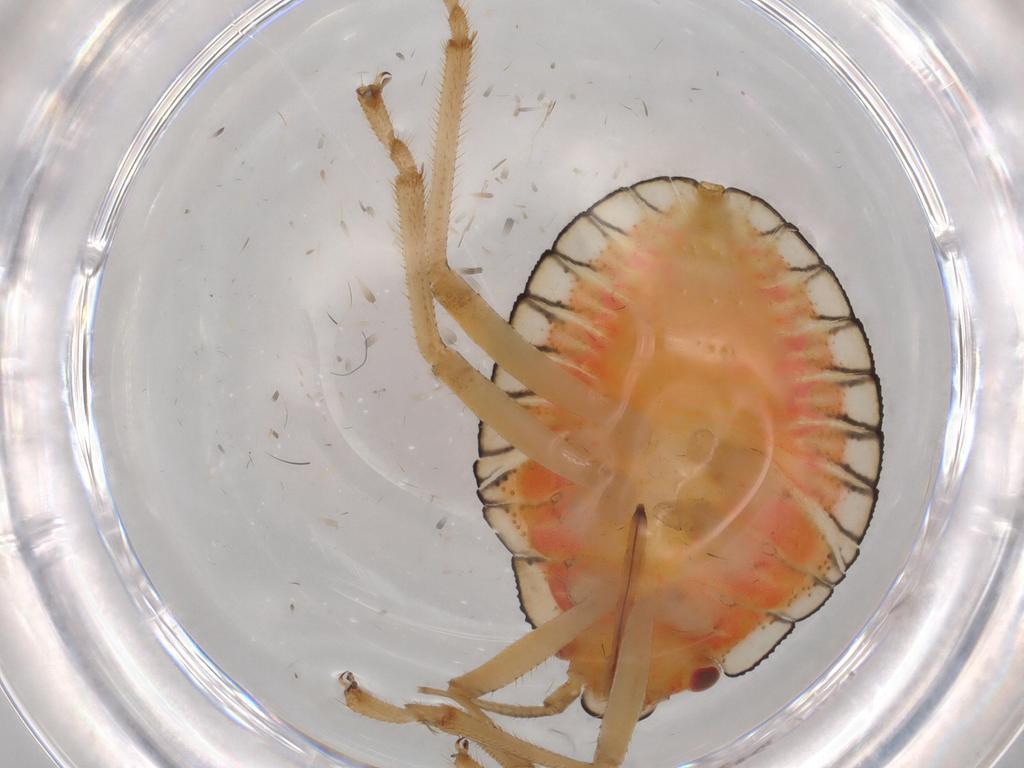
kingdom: Animalia
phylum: Arthropoda
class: Insecta
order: Hemiptera
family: Pentatomidae
